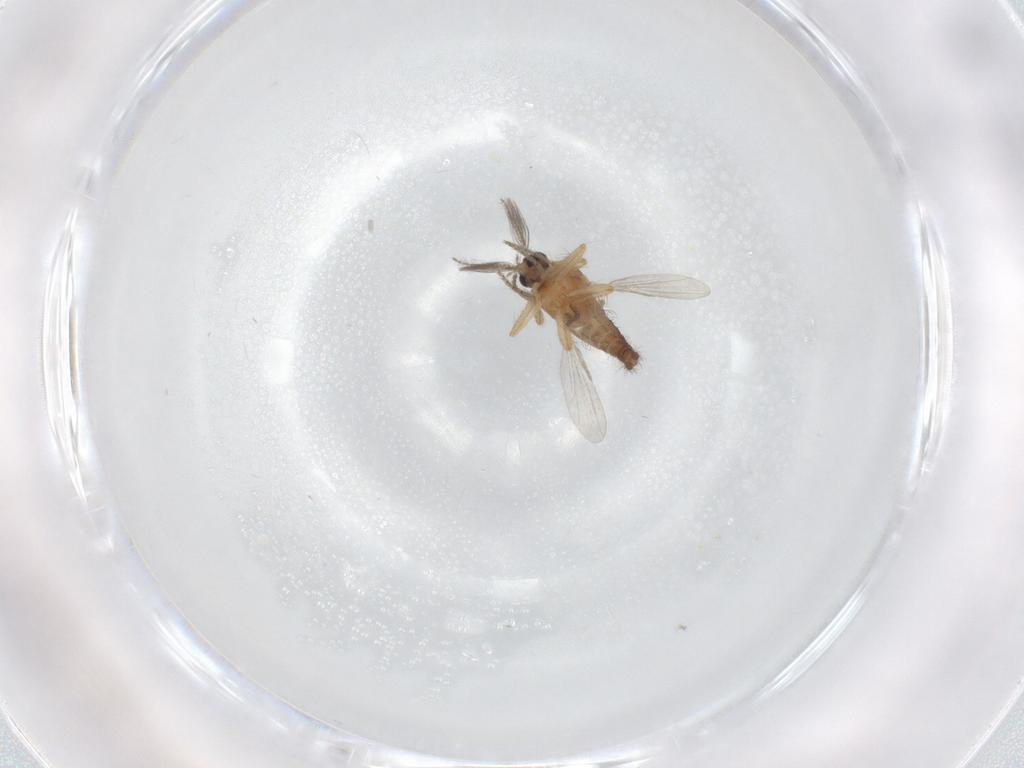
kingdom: Animalia
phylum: Arthropoda
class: Insecta
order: Diptera
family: Ceratopogonidae
